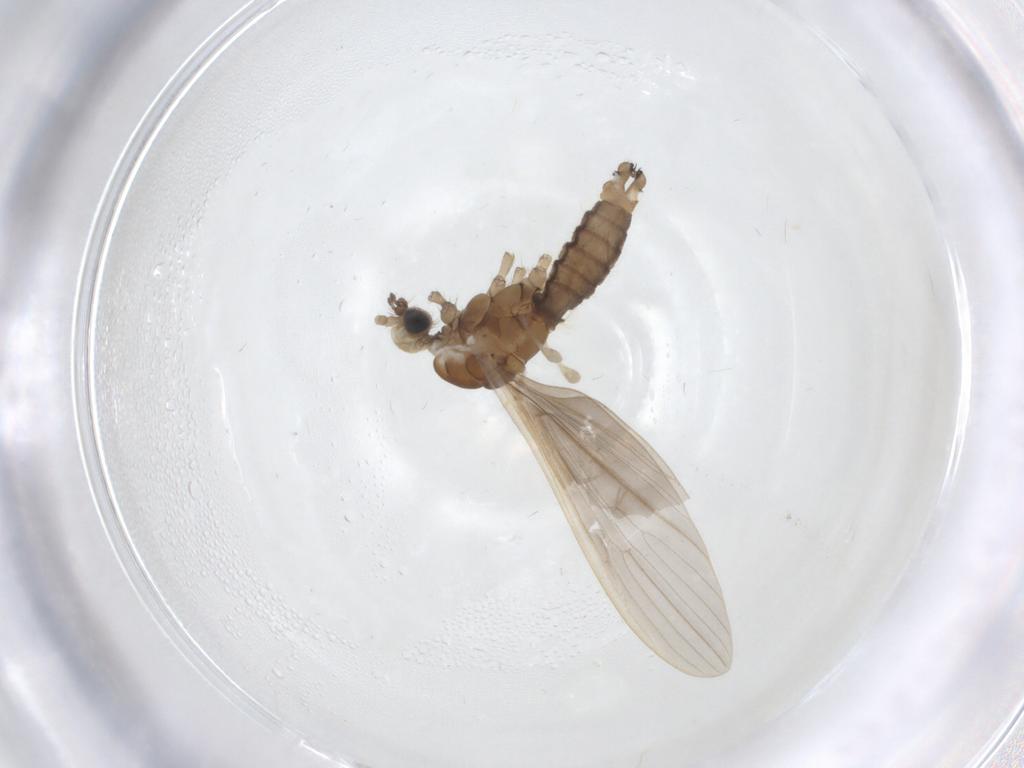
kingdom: Animalia
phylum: Arthropoda
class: Insecta
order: Diptera
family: Limoniidae
